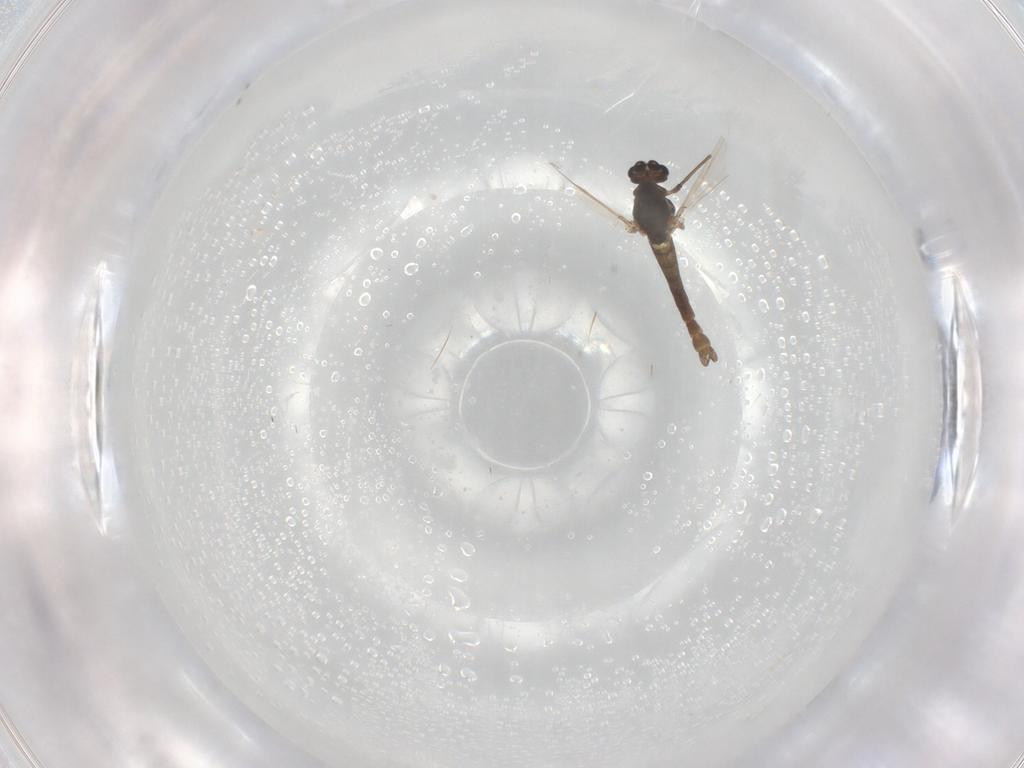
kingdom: Animalia
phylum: Arthropoda
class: Insecta
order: Diptera
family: Chironomidae
